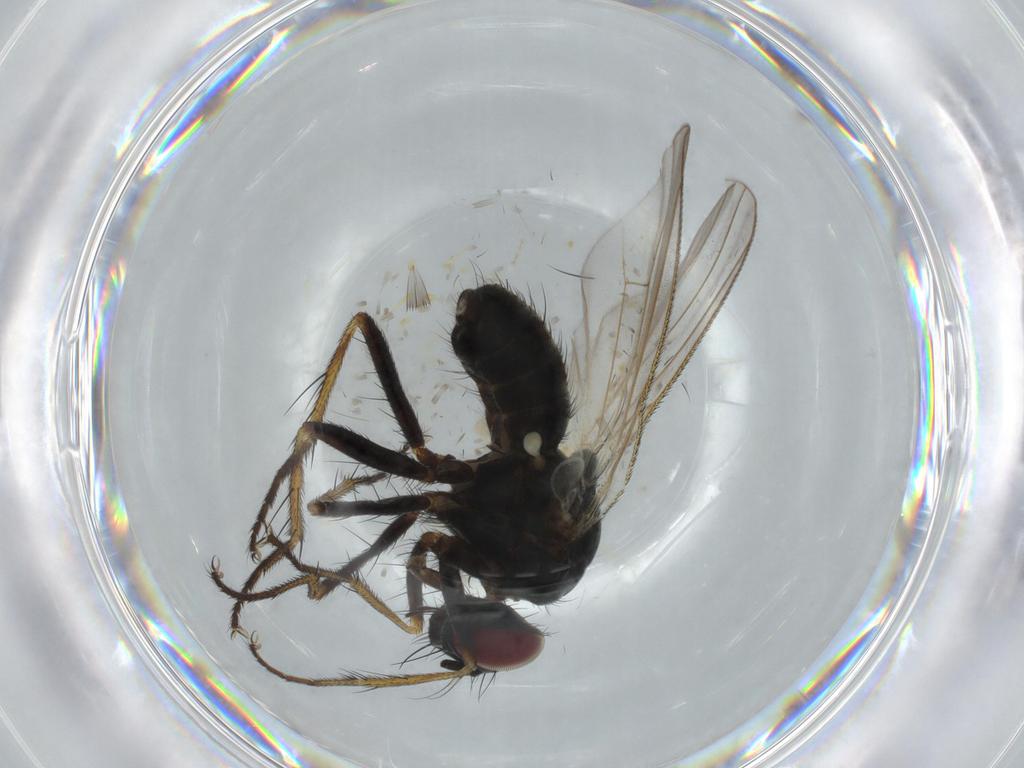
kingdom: Animalia
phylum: Arthropoda
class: Insecta
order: Diptera
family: Muscidae
